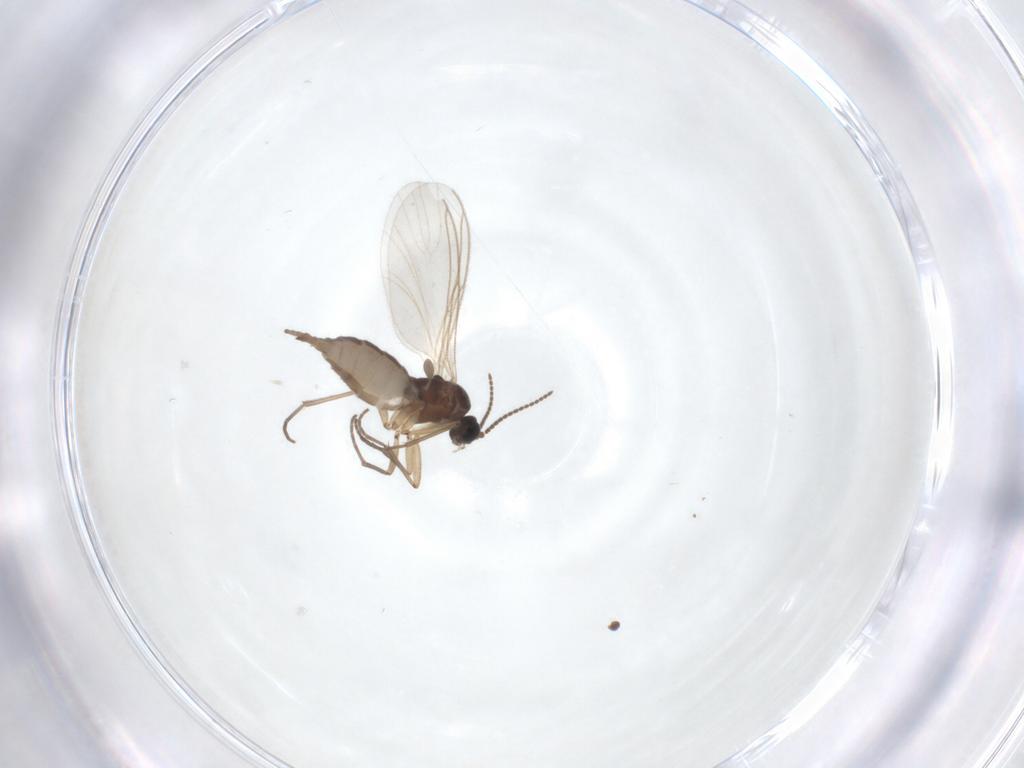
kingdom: Animalia
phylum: Arthropoda
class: Insecta
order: Diptera
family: Sciaridae
